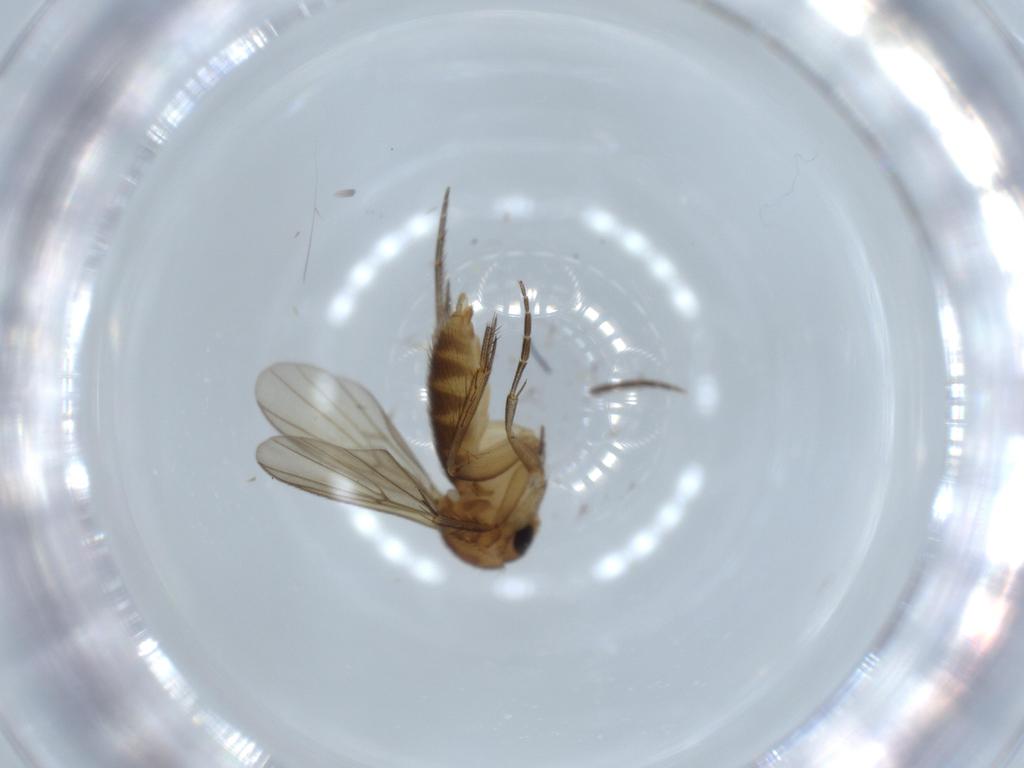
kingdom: Animalia
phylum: Arthropoda
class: Insecta
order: Diptera
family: Mycetophilidae
